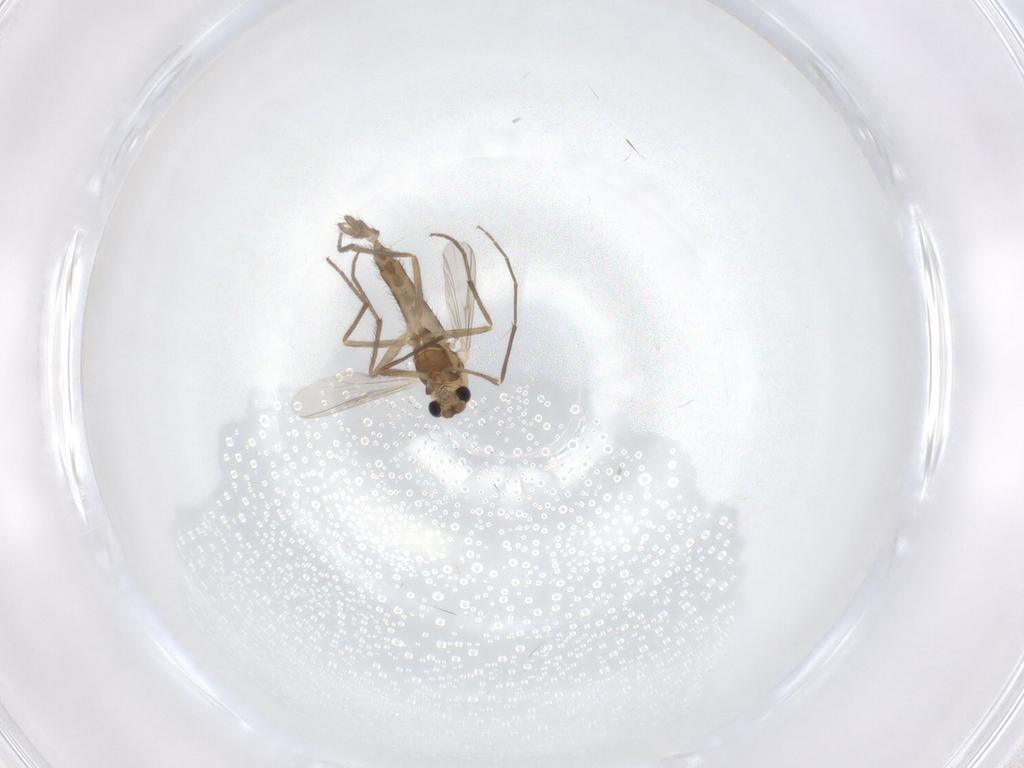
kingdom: Animalia
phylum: Arthropoda
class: Insecta
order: Diptera
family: Chironomidae
